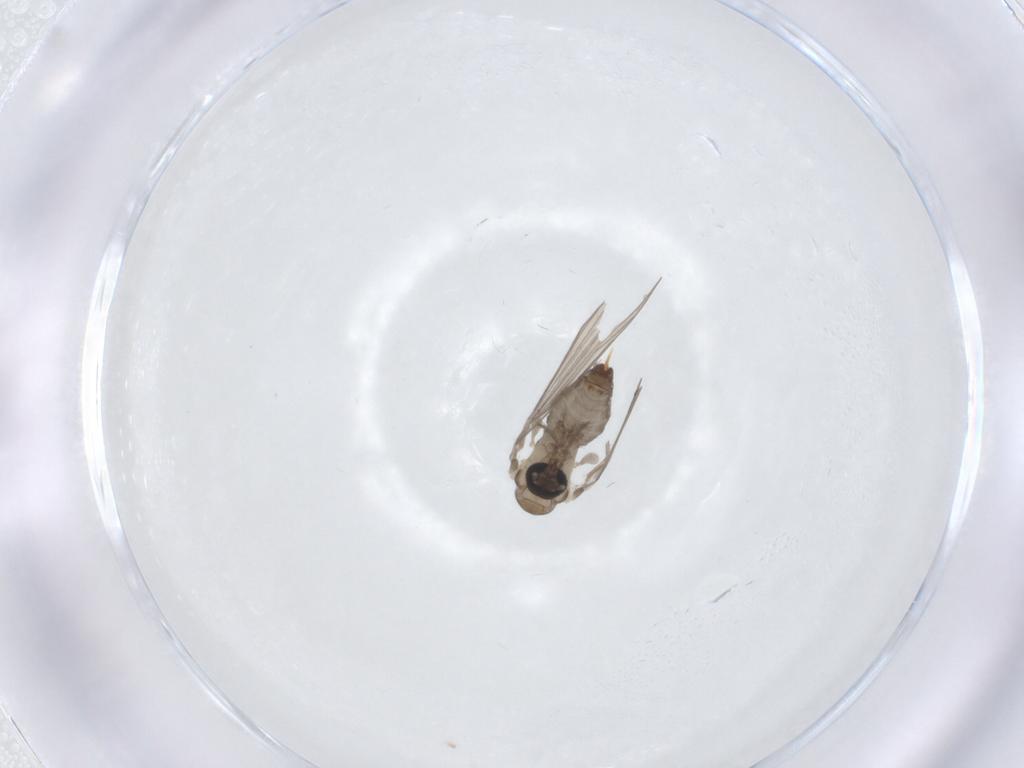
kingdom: Animalia
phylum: Arthropoda
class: Insecta
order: Diptera
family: Psychodidae
